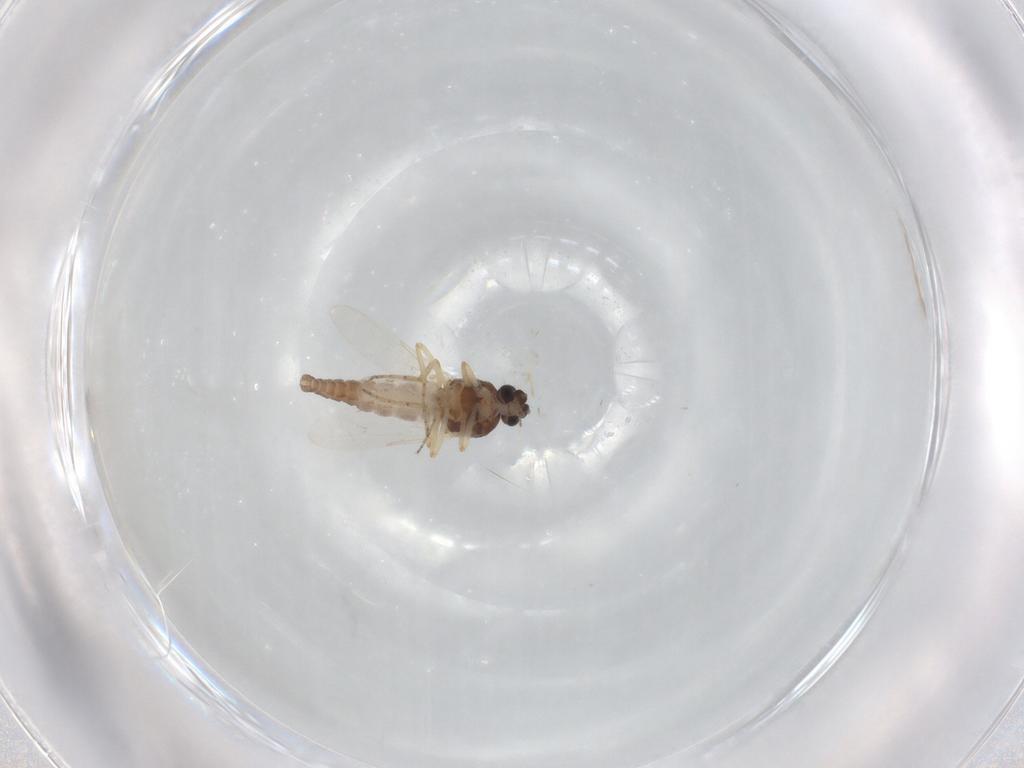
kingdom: Animalia
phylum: Arthropoda
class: Insecta
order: Diptera
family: Ceratopogonidae
